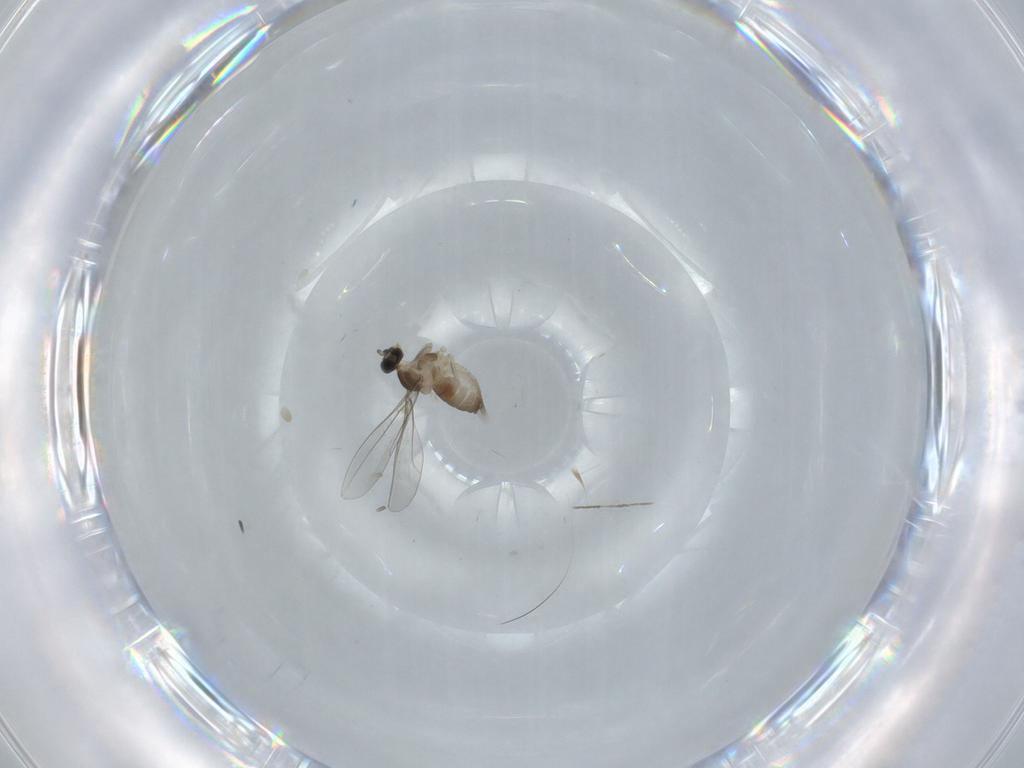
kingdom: Animalia
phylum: Arthropoda
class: Insecta
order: Diptera
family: Cecidomyiidae
